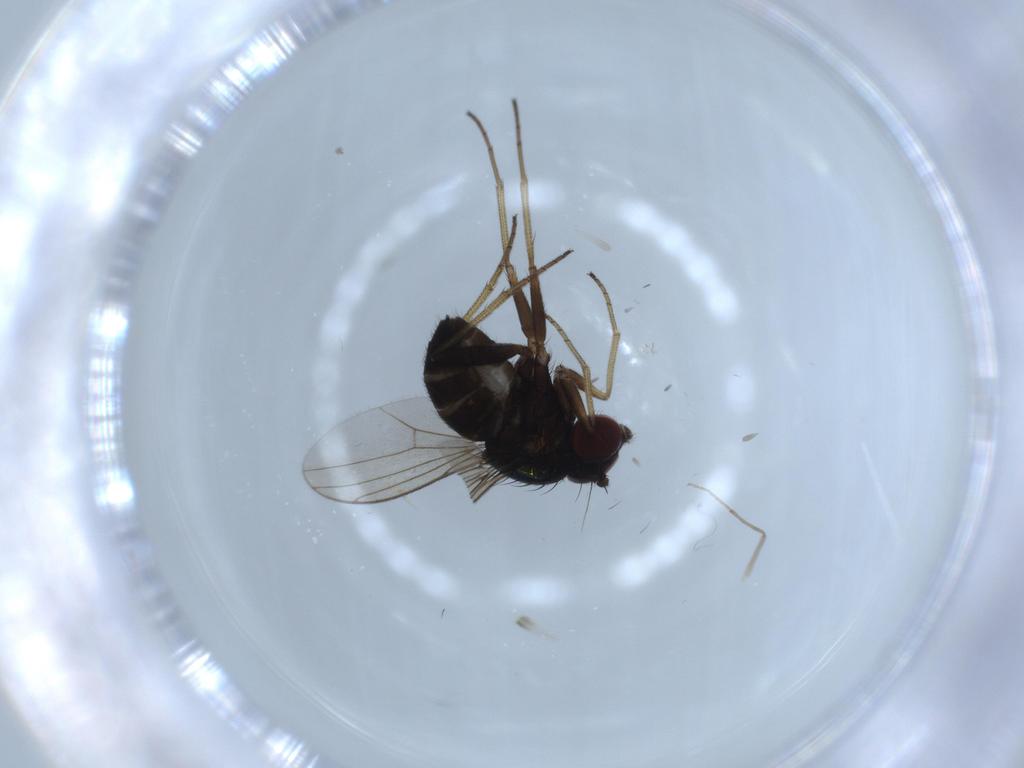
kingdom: Animalia
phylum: Arthropoda
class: Insecta
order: Diptera
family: Dolichopodidae
